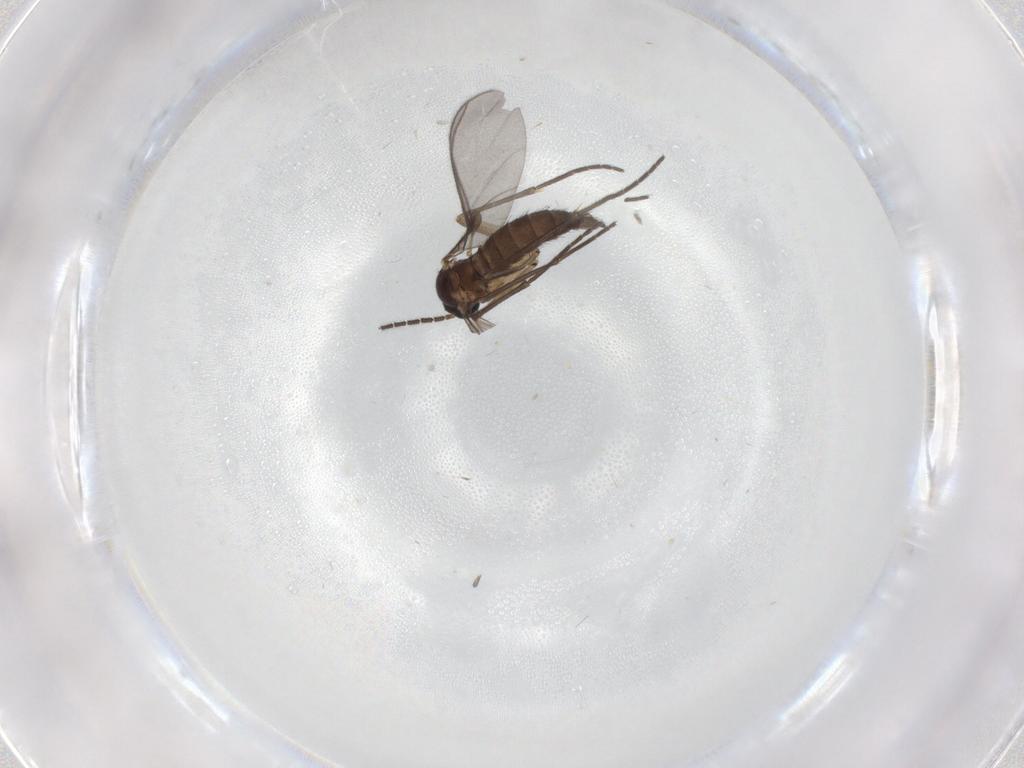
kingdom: Animalia
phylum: Arthropoda
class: Insecta
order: Diptera
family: Sciaridae
